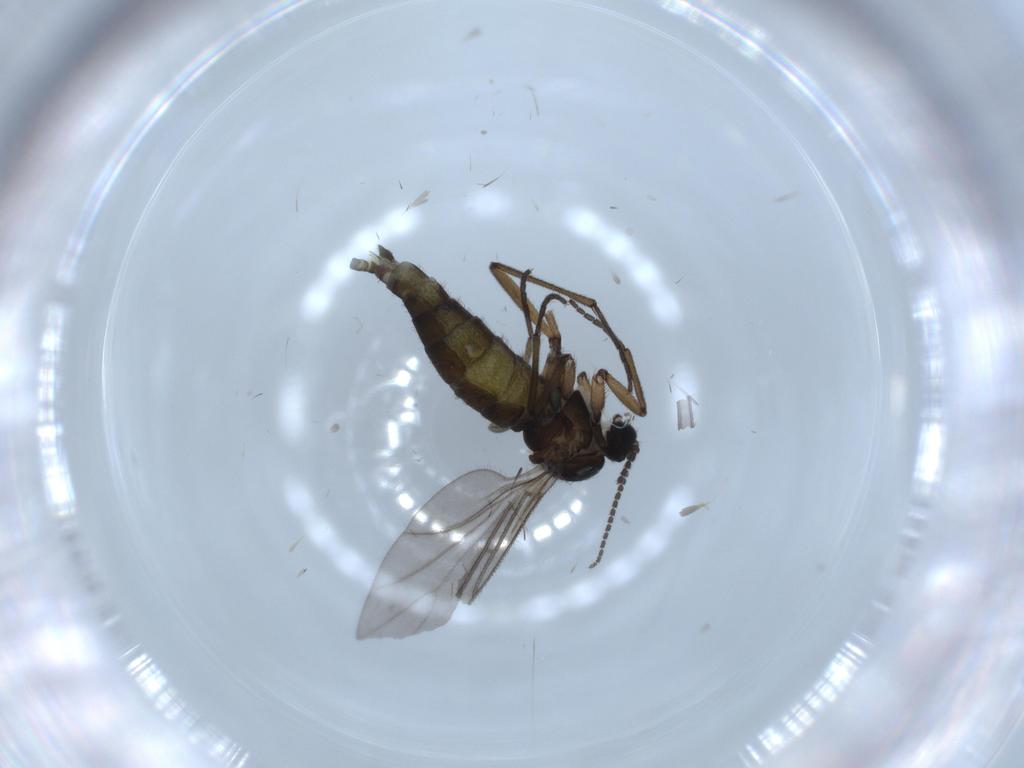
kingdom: Animalia
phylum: Arthropoda
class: Insecta
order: Diptera
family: Sciaridae
